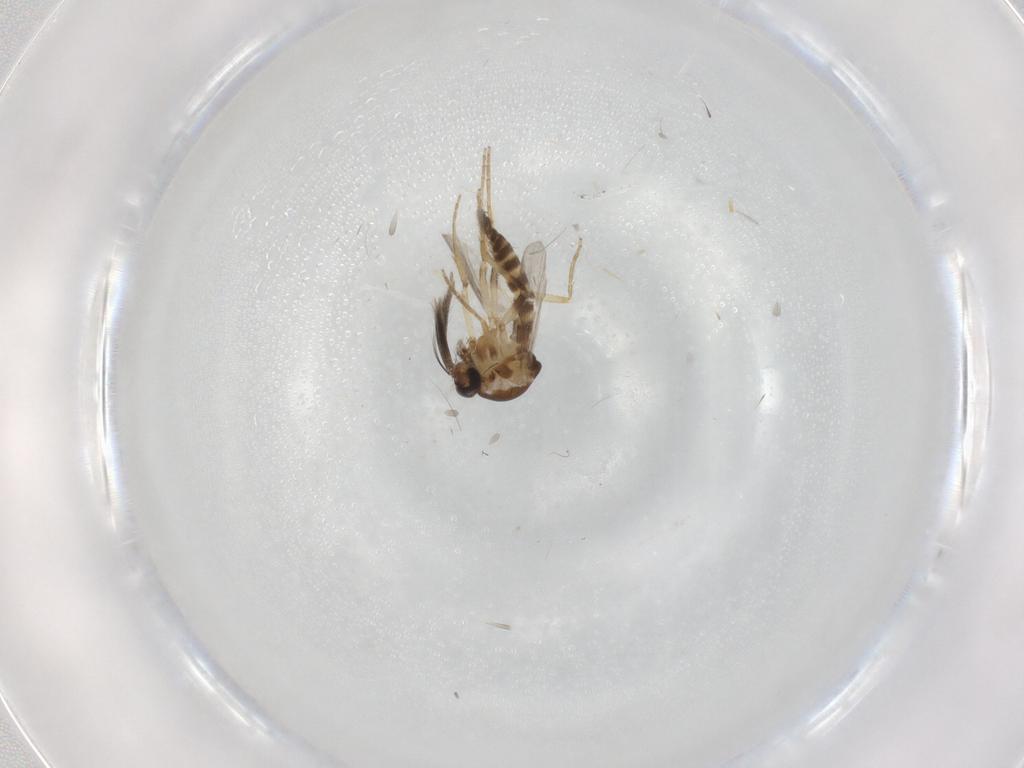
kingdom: Animalia
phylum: Arthropoda
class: Insecta
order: Diptera
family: Ceratopogonidae
